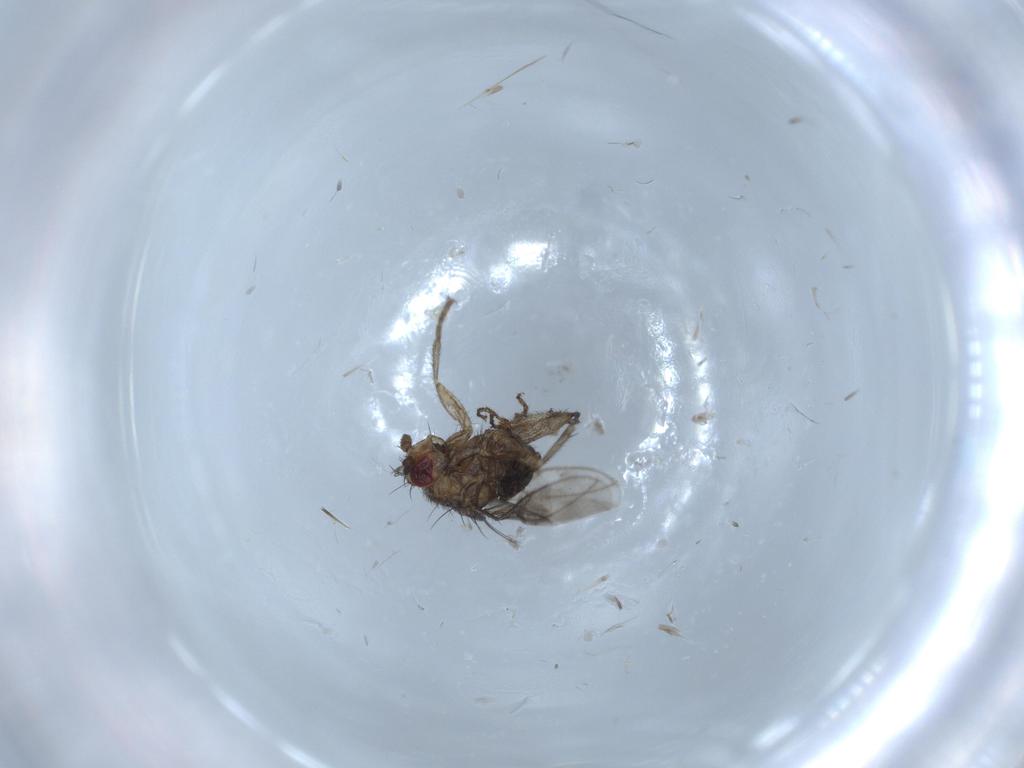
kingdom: Animalia
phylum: Arthropoda
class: Insecta
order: Diptera
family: Sphaeroceridae
